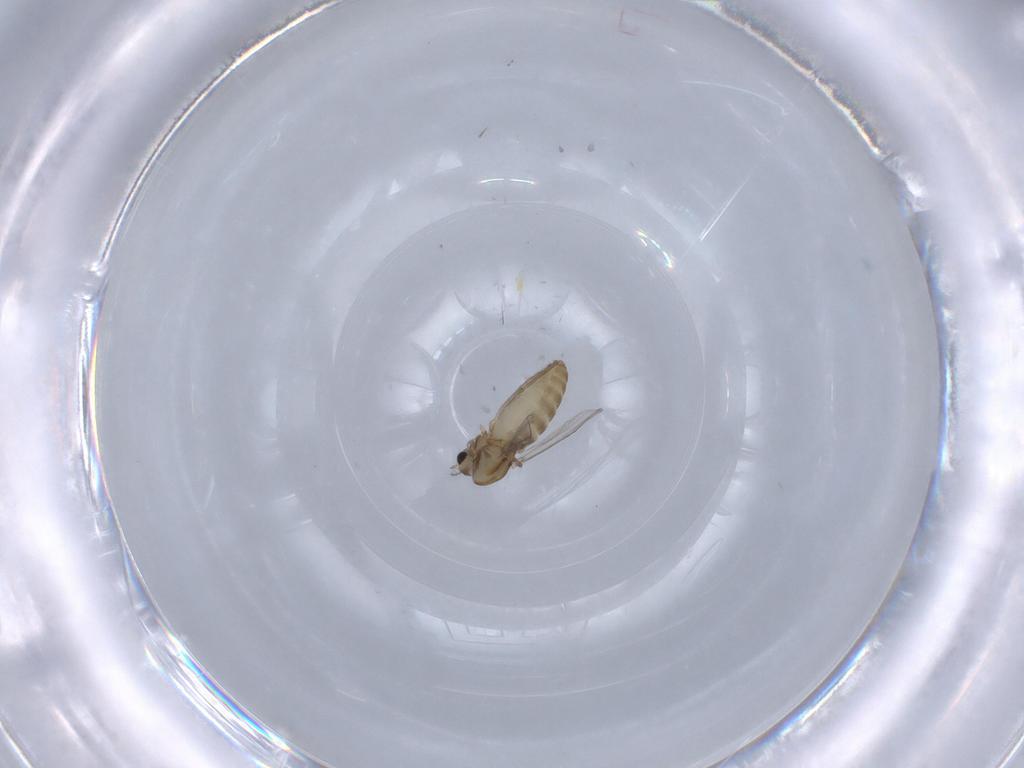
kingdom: Animalia
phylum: Arthropoda
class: Insecta
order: Diptera
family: Chironomidae
